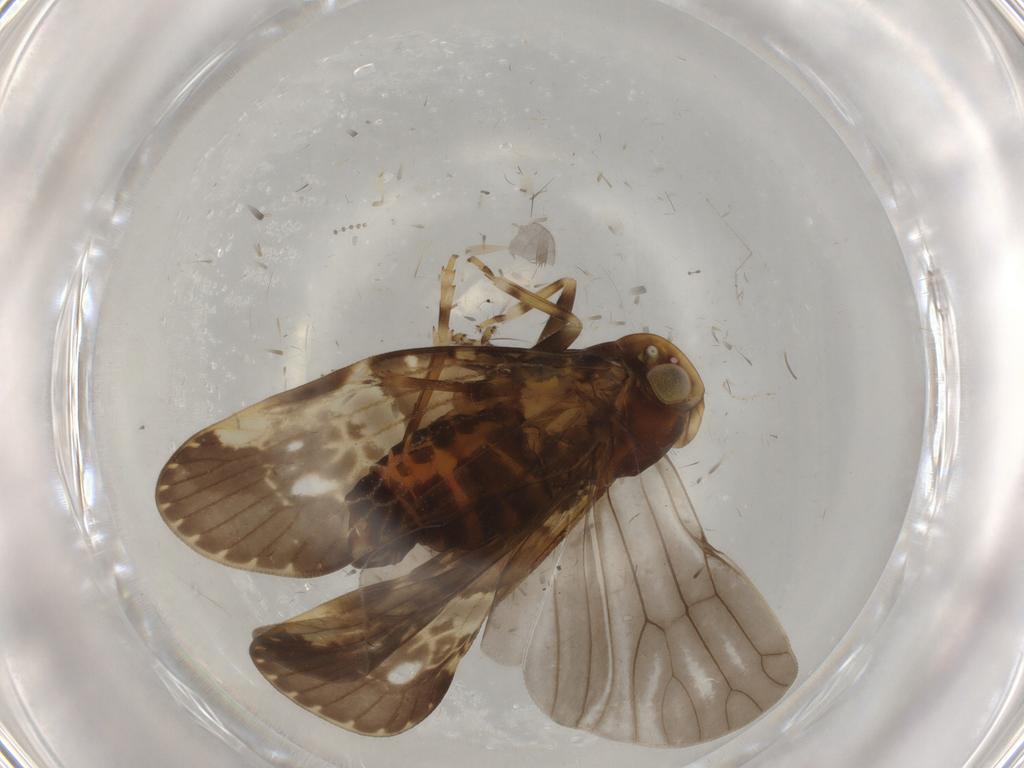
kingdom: Animalia
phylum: Arthropoda
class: Insecta
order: Hemiptera
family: Cixiidae
